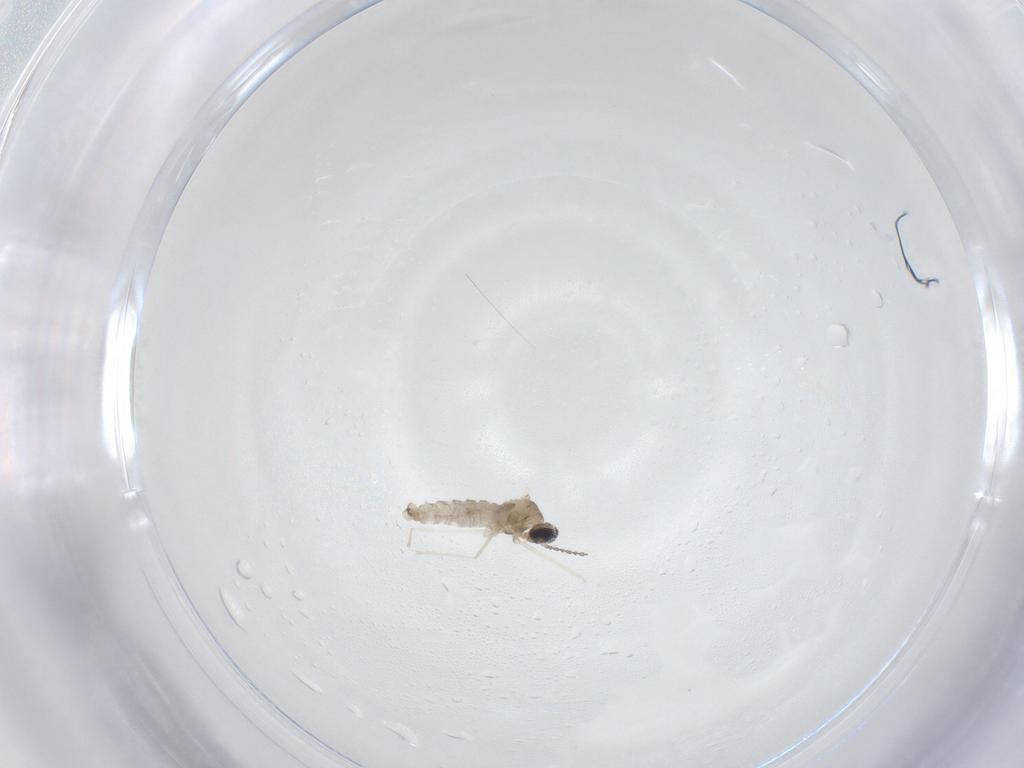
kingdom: Animalia
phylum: Arthropoda
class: Insecta
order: Diptera
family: Cecidomyiidae
